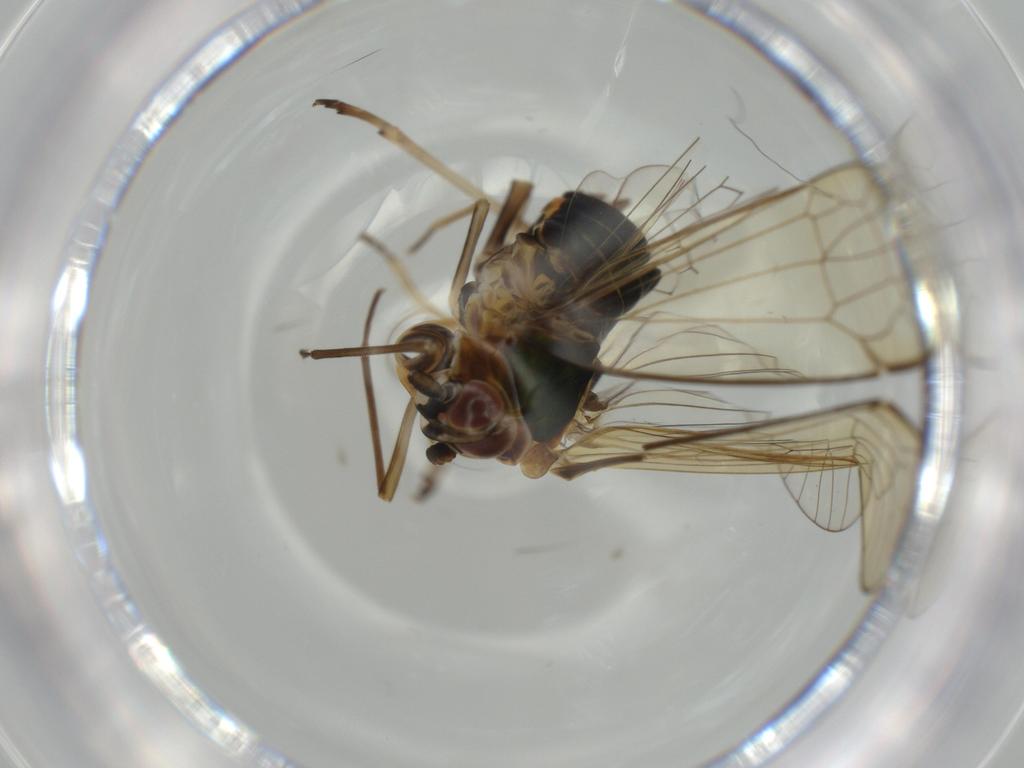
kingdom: Animalia
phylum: Arthropoda
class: Insecta
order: Hemiptera
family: Kinnaridae
